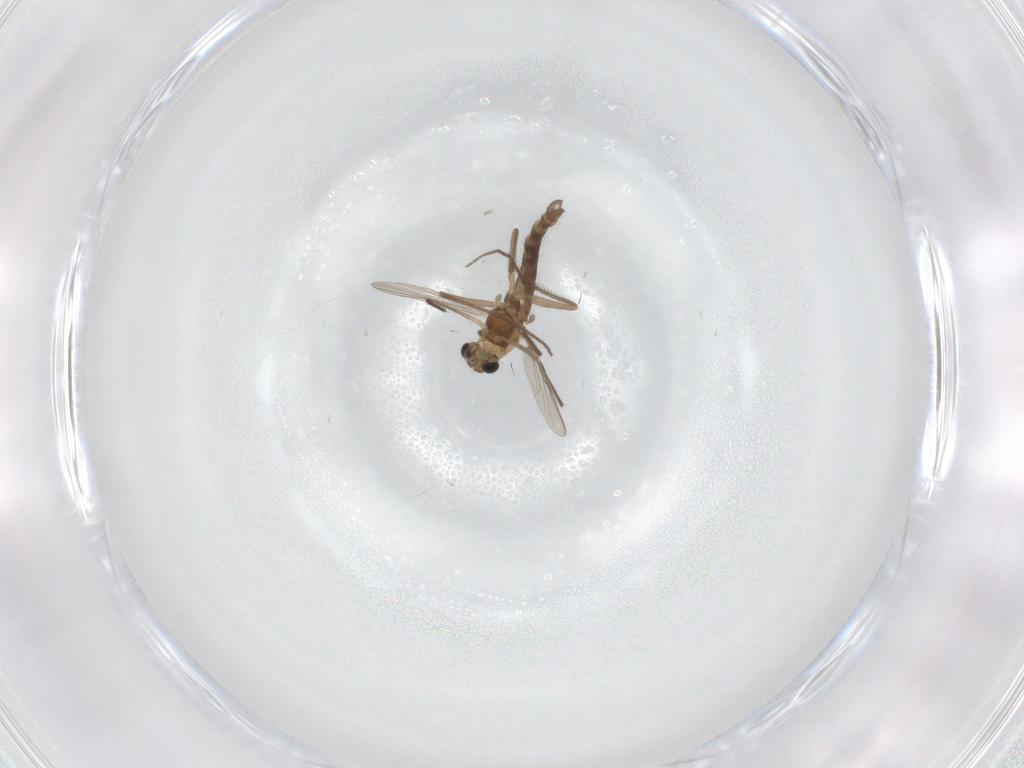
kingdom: Animalia
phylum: Arthropoda
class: Insecta
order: Diptera
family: Chironomidae
